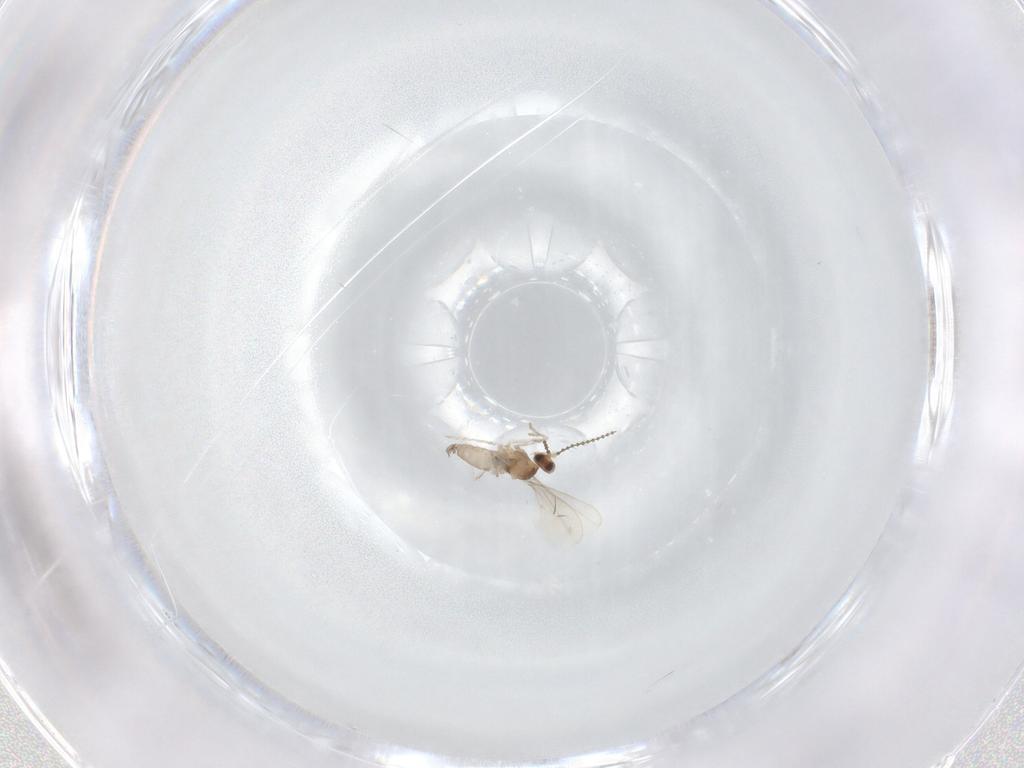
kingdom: Animalia
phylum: Arthropoda
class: Insecta
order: Diptera
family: Cecidomyiidae
